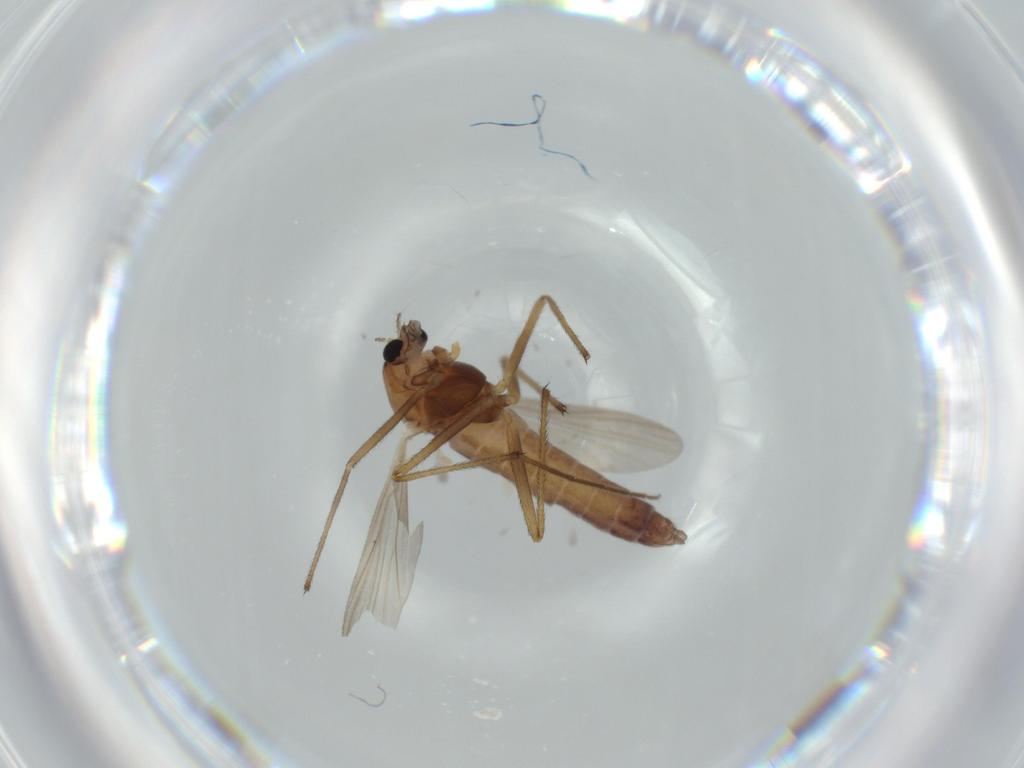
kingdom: Animalia
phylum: Arthropoda
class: Insecta
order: Diptera
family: Chironomidae
